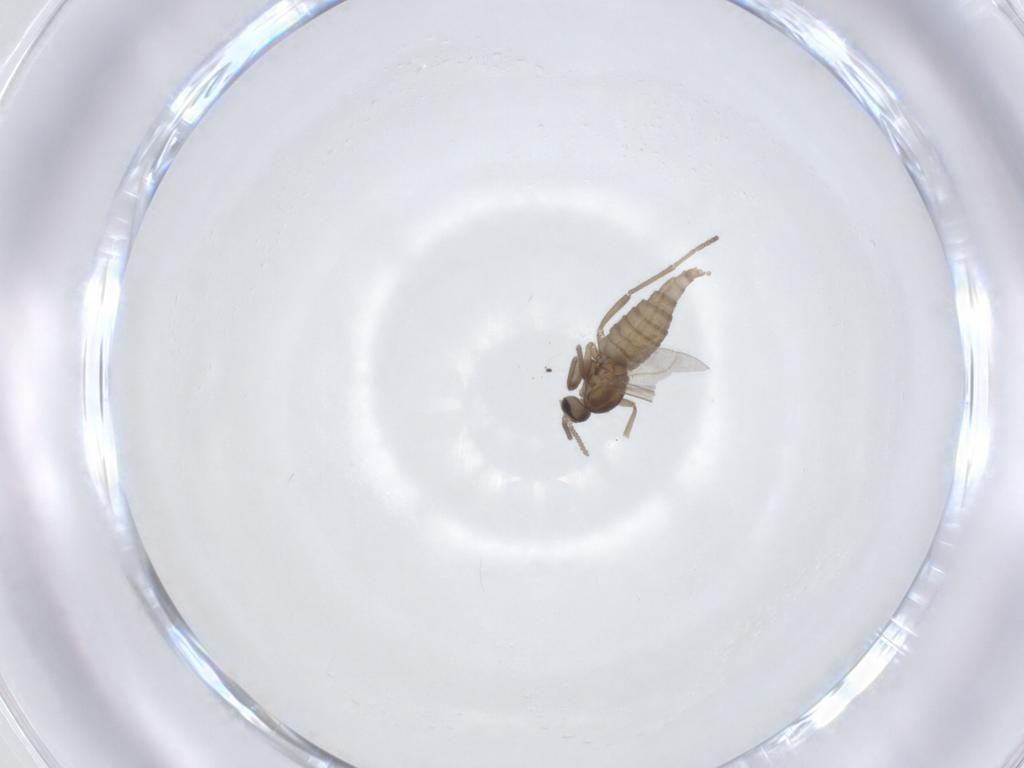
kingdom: Animalia
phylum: Arthropoda
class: Insecta
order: Diptera
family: Cecidomyiidae
